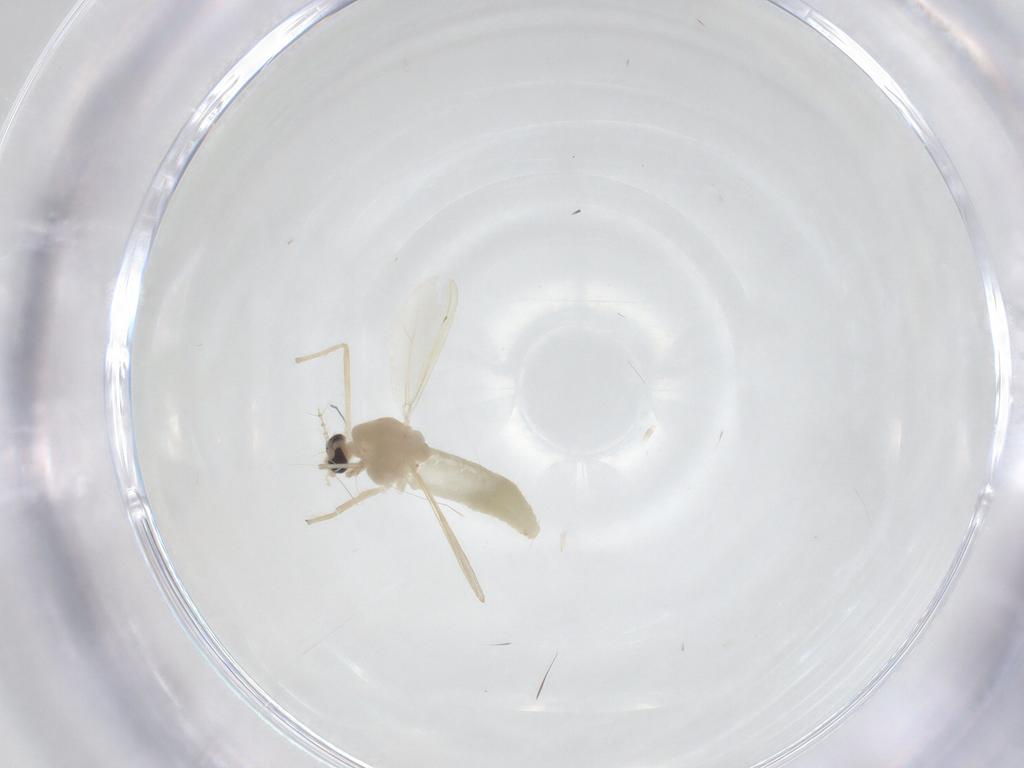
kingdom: Animalia
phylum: Arthropoda
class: Insecta
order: Diptera
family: Chironomidae
